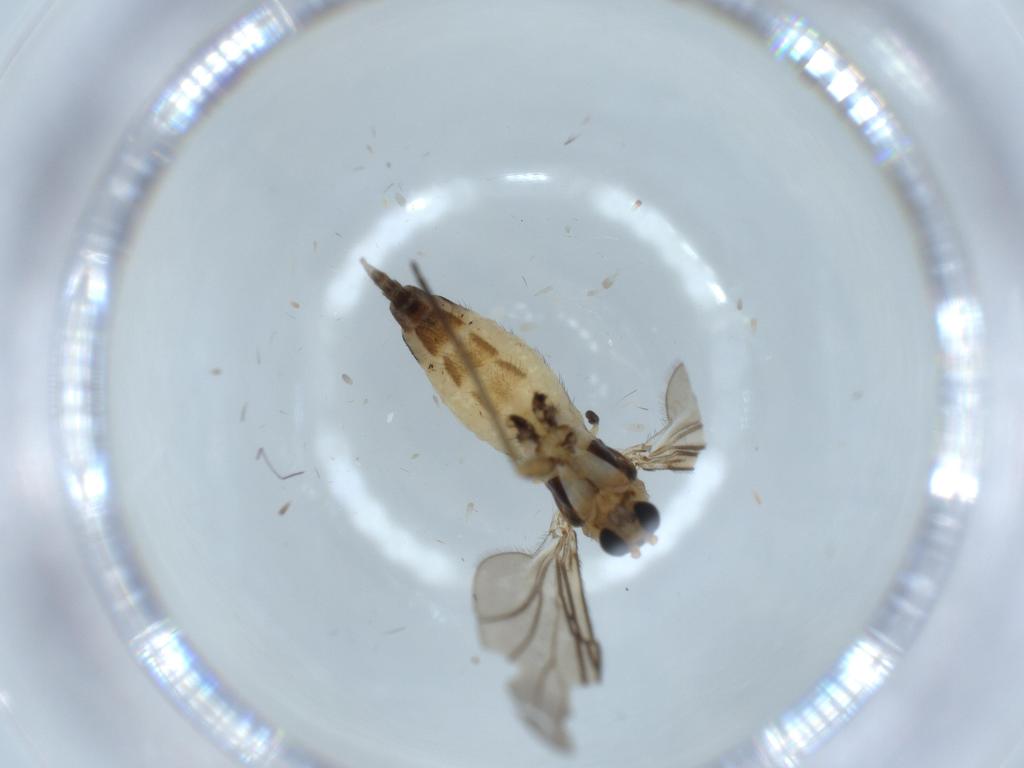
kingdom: Animalia
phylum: Arthropoda
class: Insecta
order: Diptera
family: Sciaridae
